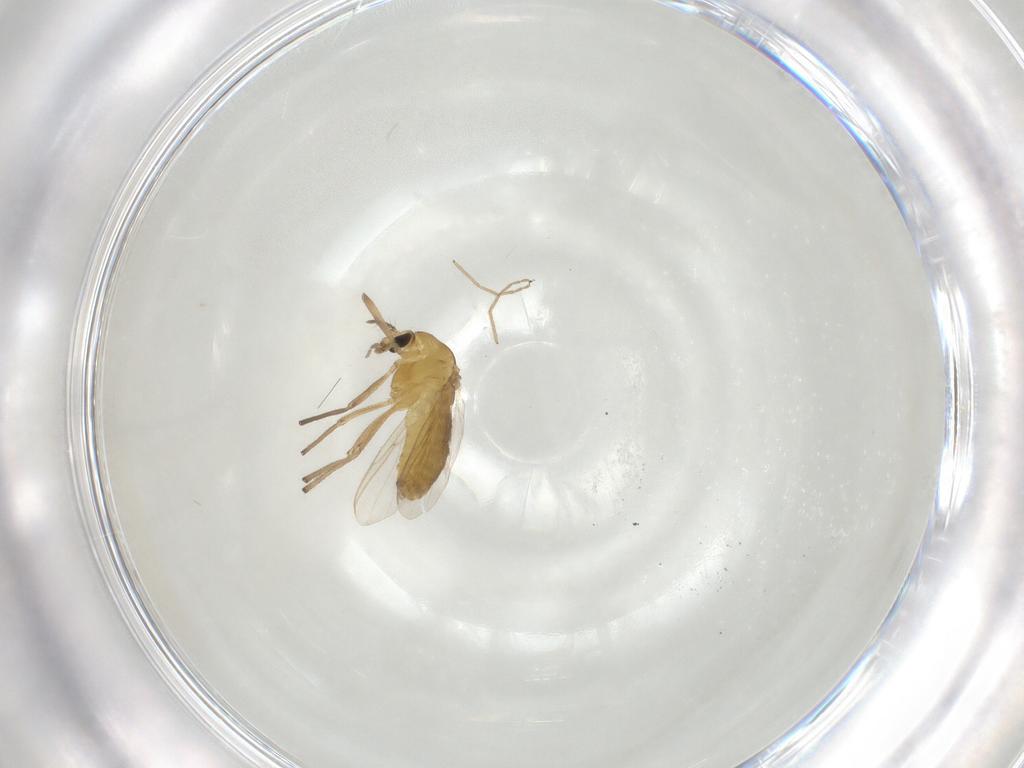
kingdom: Animalia
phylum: Arthropoda
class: Insecta
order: Diptera
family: Chironomidae
